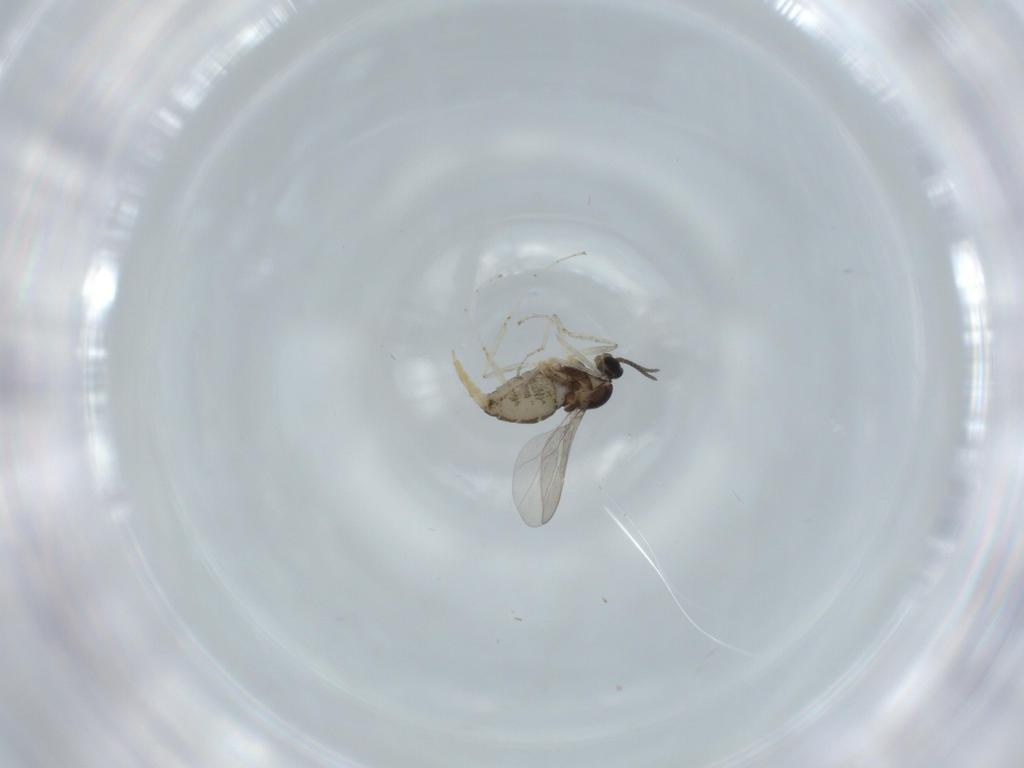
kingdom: Animalia
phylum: Arthropoda
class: Insecta
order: Diptera
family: Cecidomyiidae
